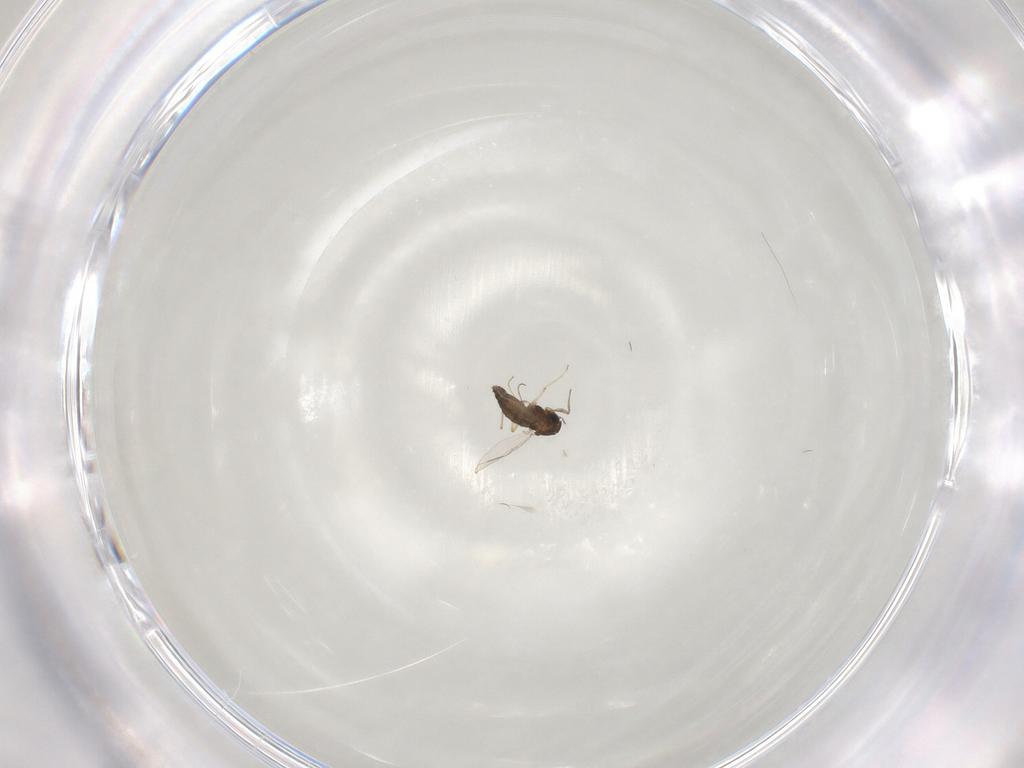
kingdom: Animalia
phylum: Arthropoda
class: Insecta
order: Diptera
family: Chironomidae
